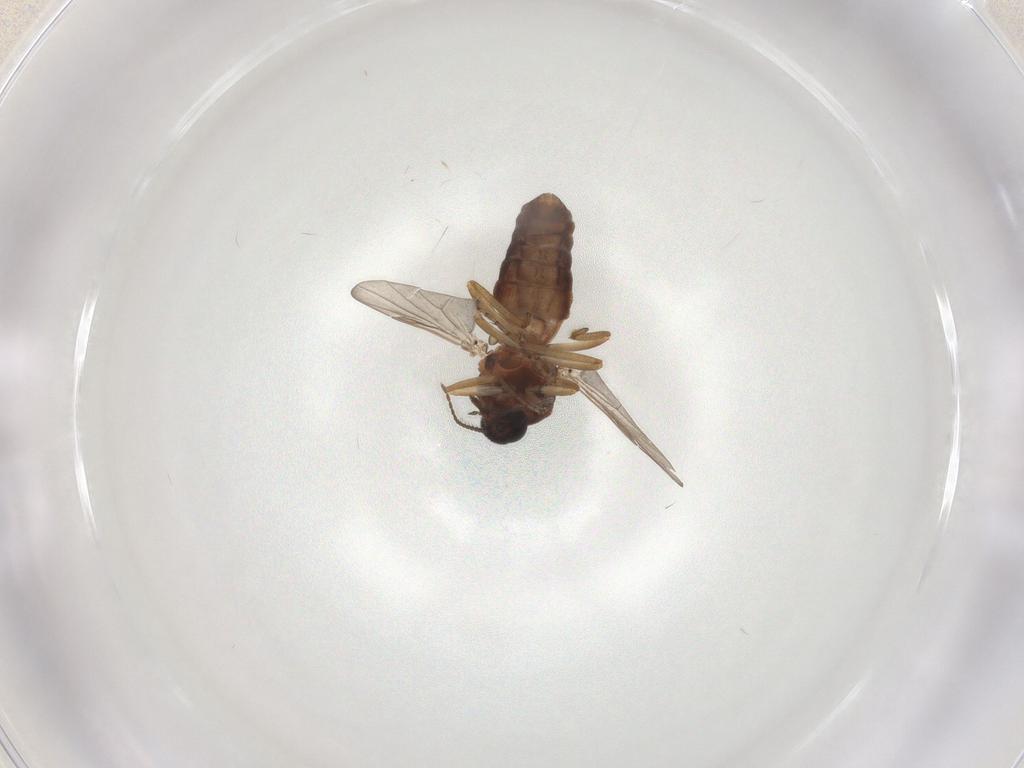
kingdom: Animalia
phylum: Arthropoda
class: Insecta
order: Diptera
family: Ceratopogonidae
